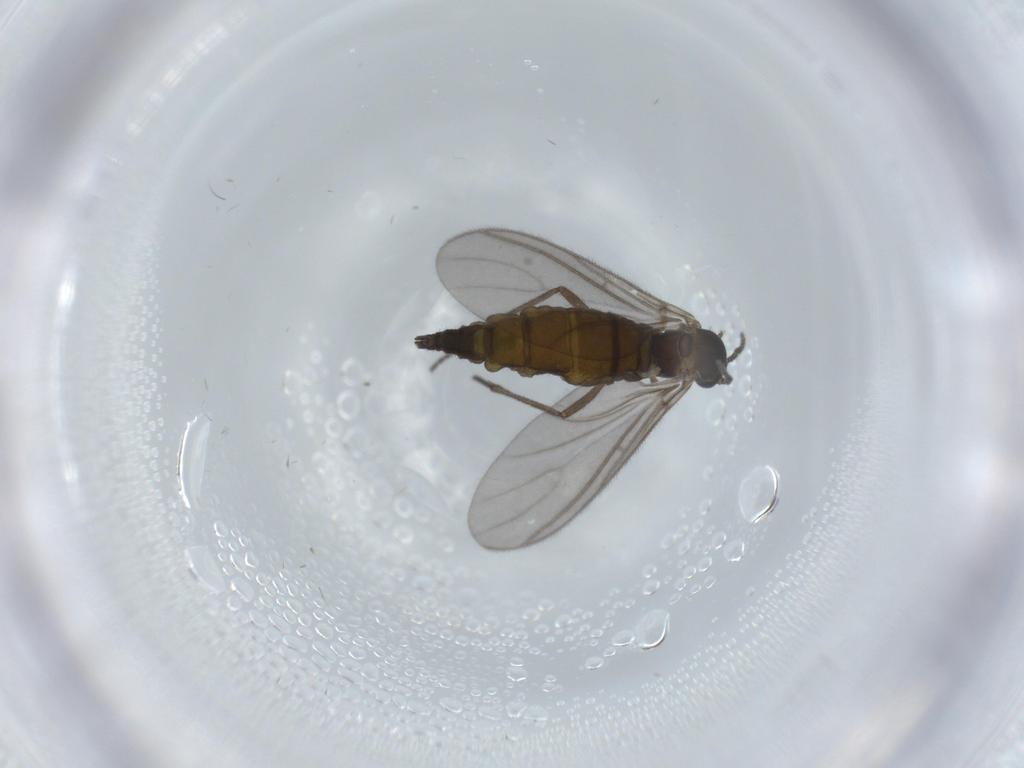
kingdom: Animalia
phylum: Arthropoda
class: Insecta
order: Diptera
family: Sciaridae
